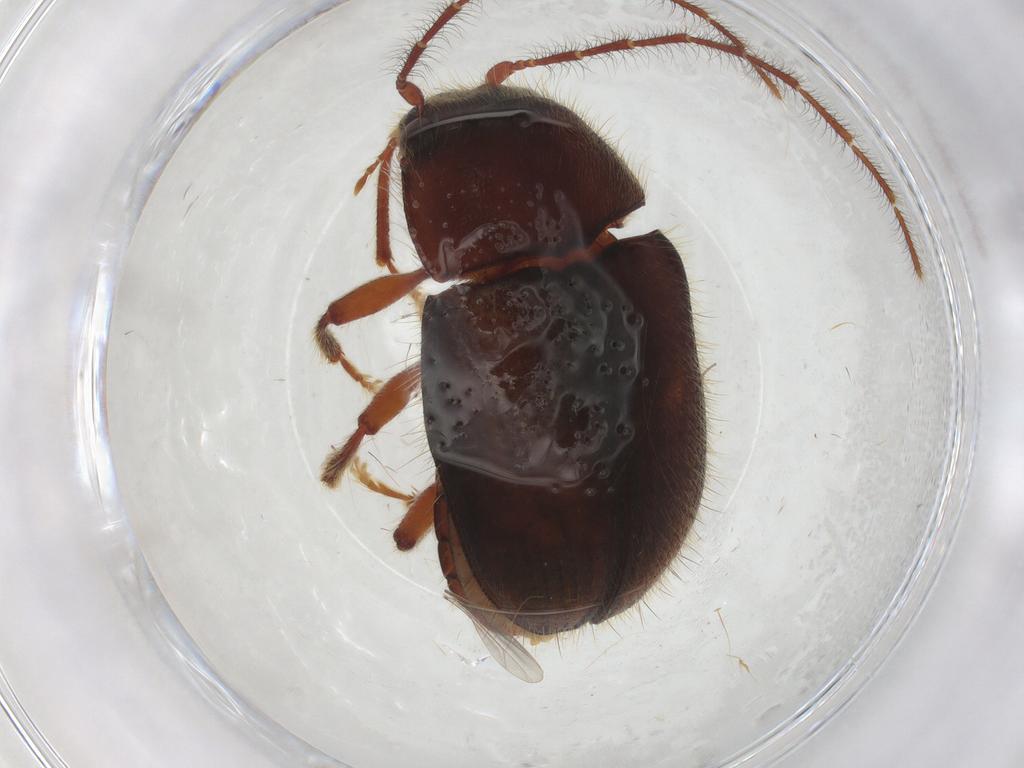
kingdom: Animalia
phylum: Arthropoda
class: Insecta
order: Coleoptera
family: Artematopodidae
